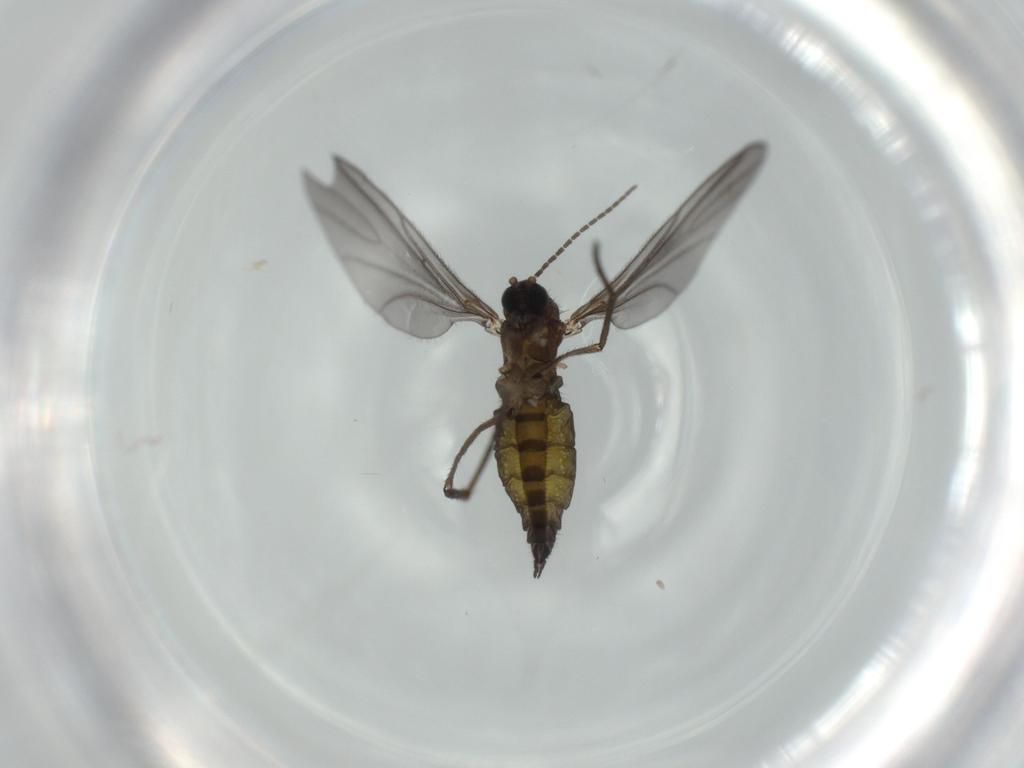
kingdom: Animalia
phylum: Arthropoda
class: Insecta
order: Diptera
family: Sciaridae
